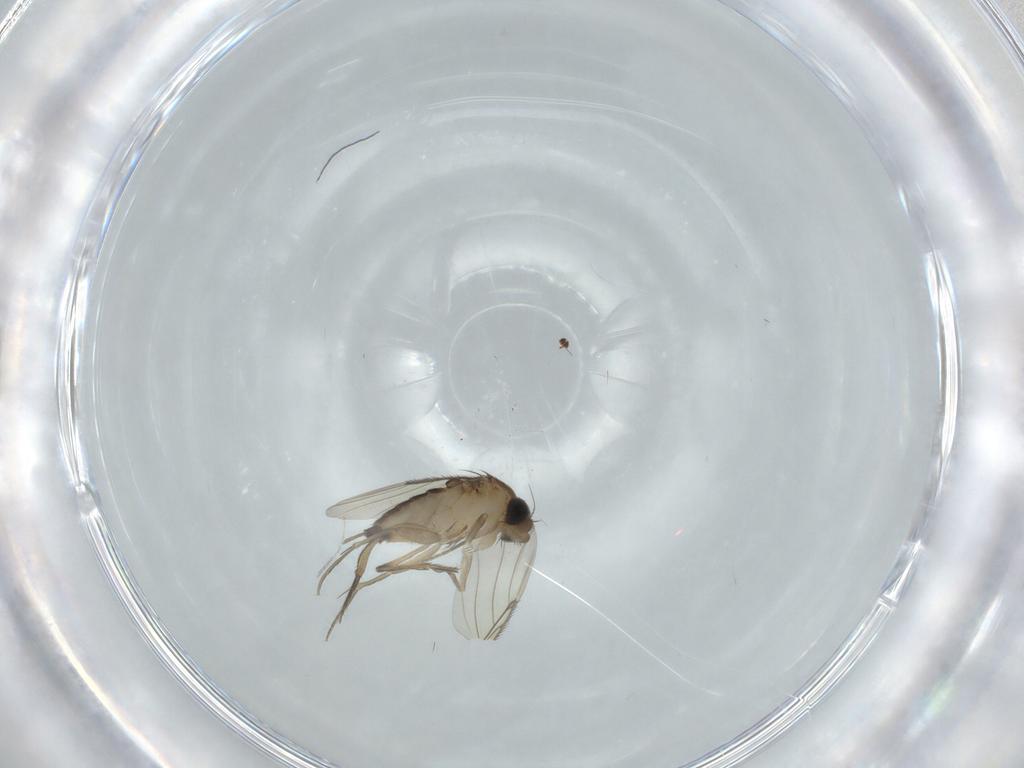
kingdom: Animalia
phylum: Arthropoda
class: Insecta
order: Diptera
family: Phoridae
